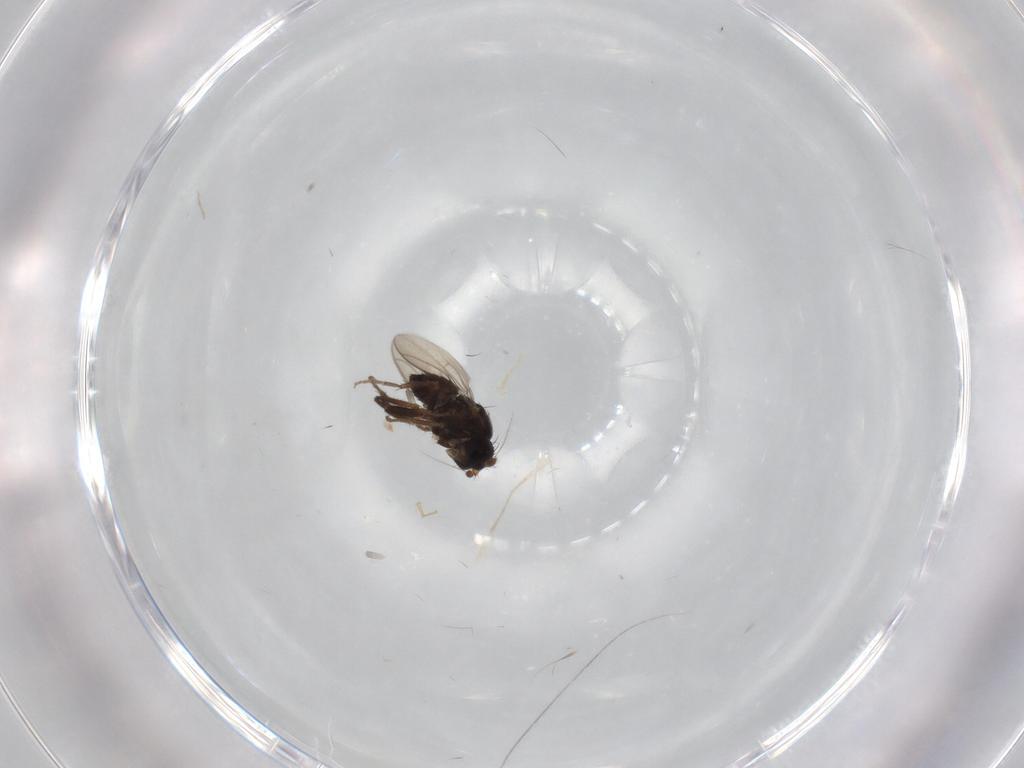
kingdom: Animalia
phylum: Arthropoda
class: Insecta
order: Diptera
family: Sphaeroceridae
